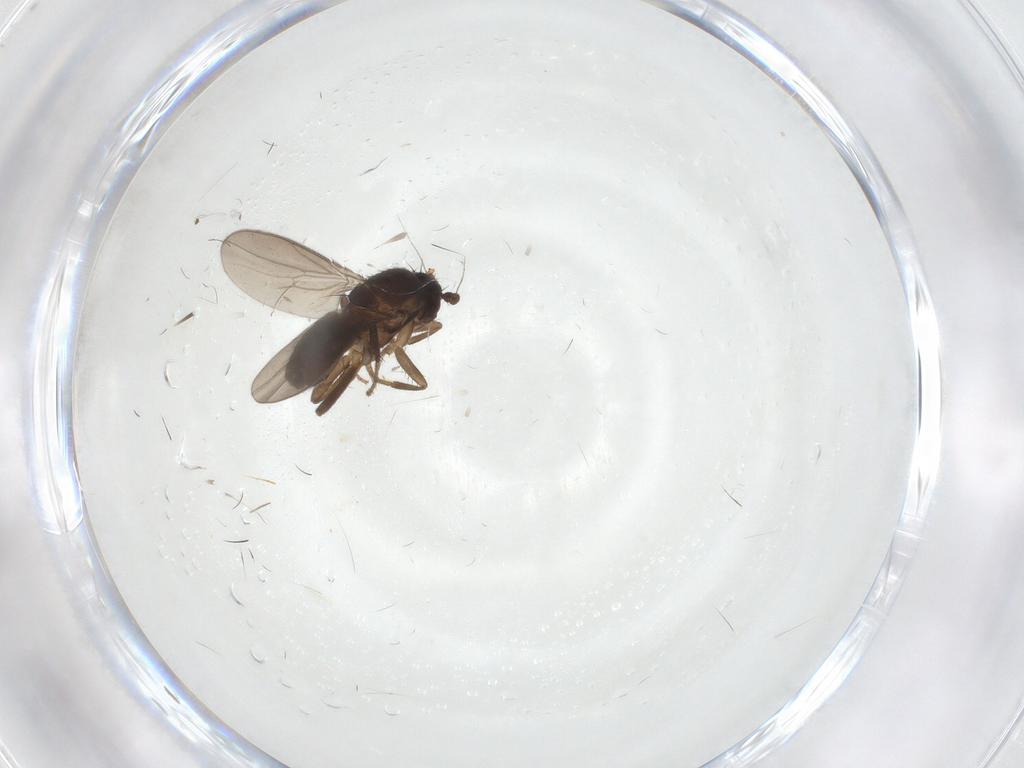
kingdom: Animalia
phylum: Arthropoda
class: Insecta
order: Diptera
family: Sphaeroceridae
